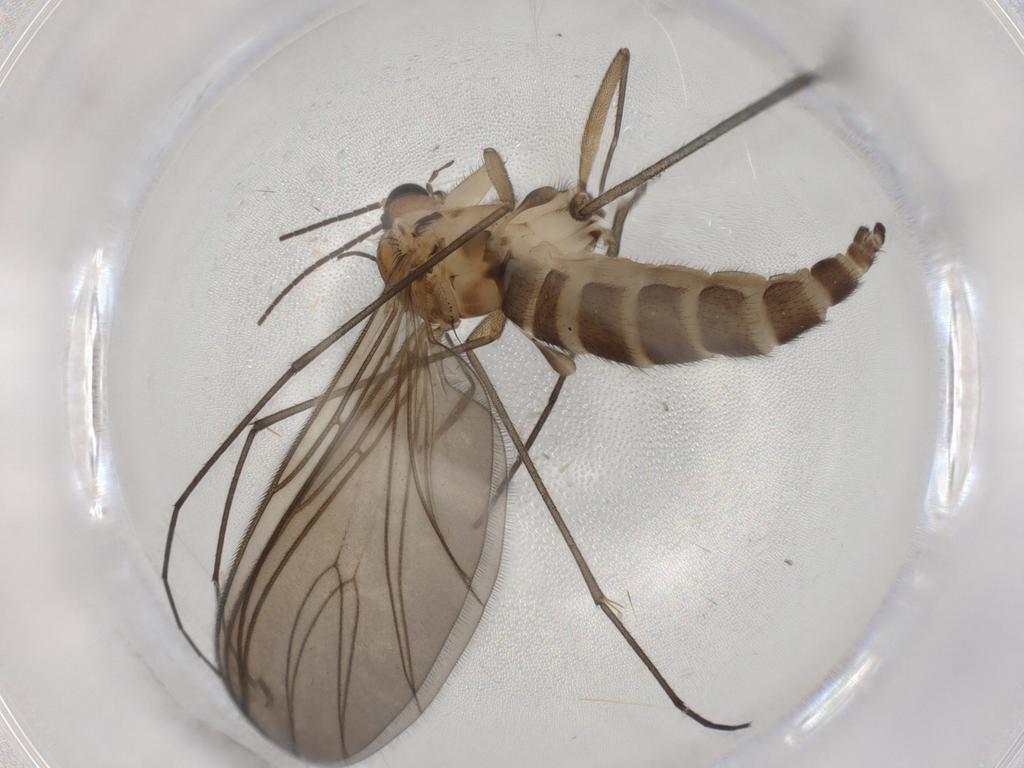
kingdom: Animalia
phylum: Arthropoda
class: Insecta
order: Diptera
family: Sciaridae
